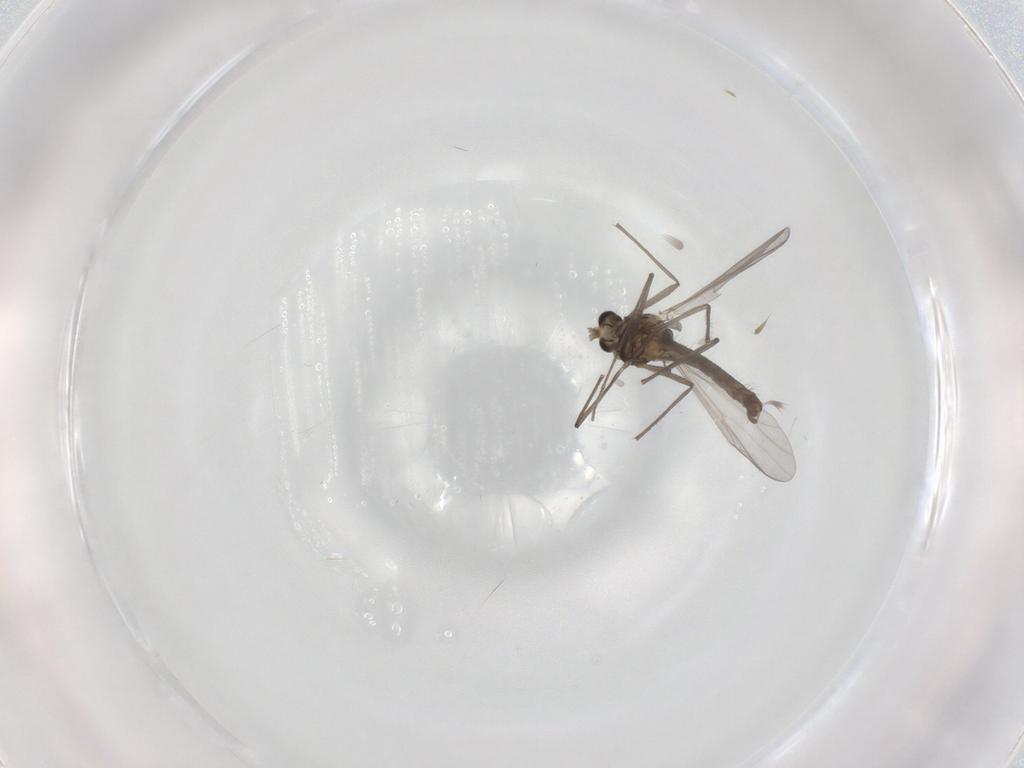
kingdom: Animalia
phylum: Arthropoda
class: Insecta
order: Diptera
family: Chironomidae
